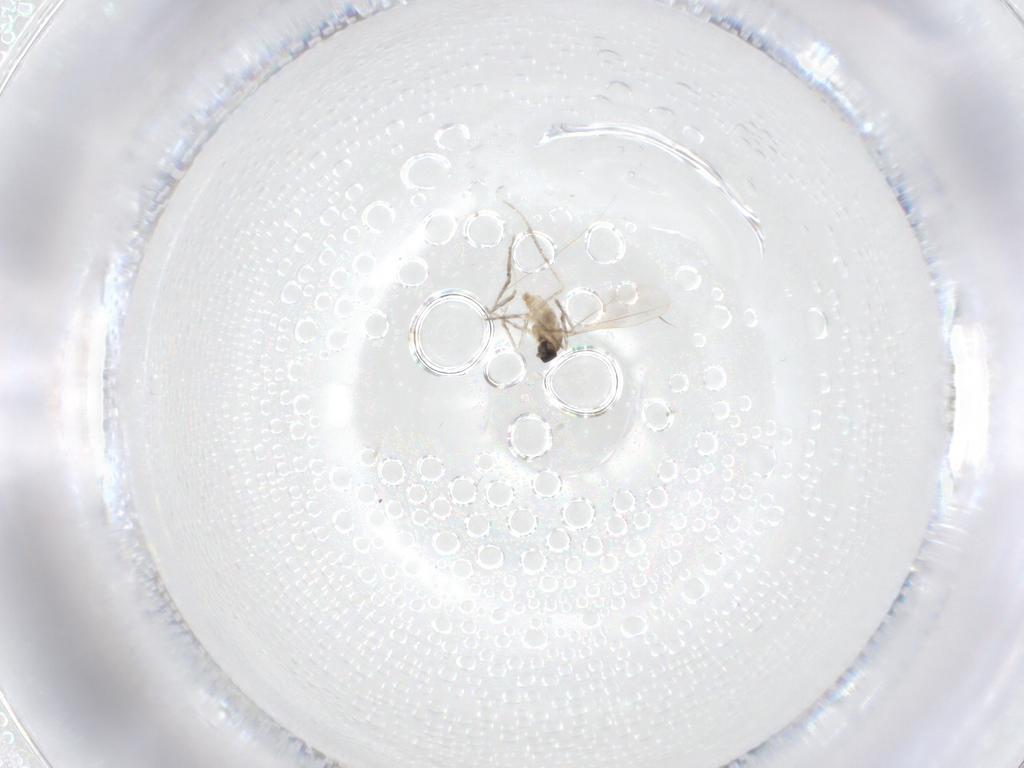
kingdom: Animalia
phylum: Arthropoda
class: Insecta
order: Diptera
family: Cecidomyiidae
